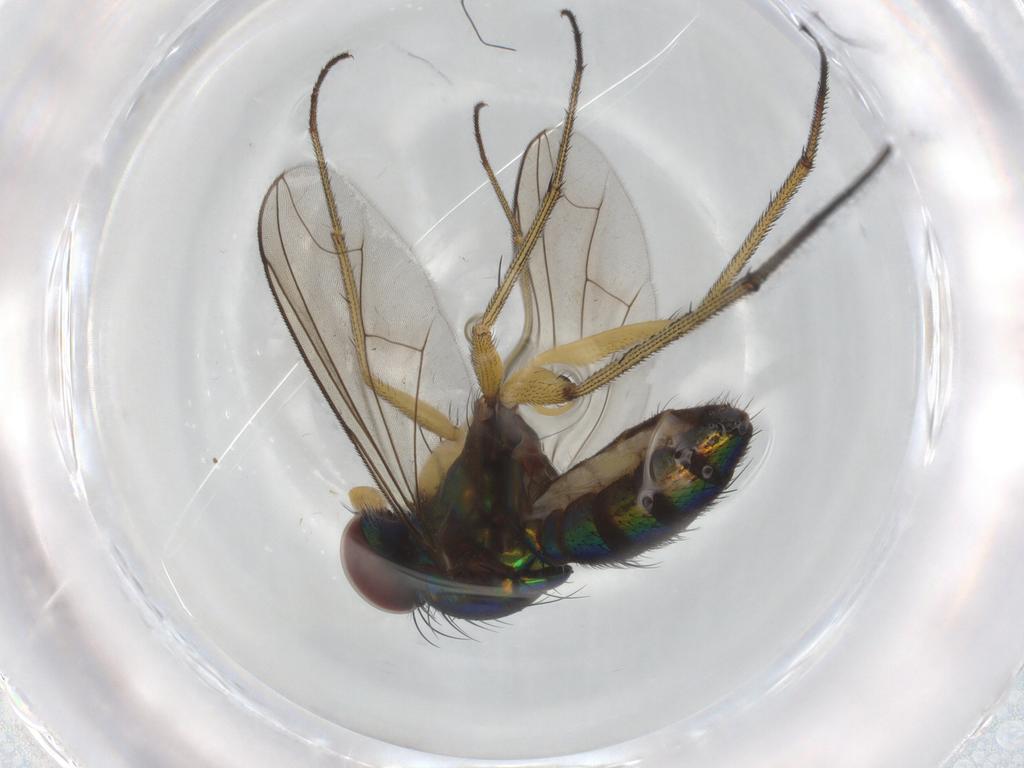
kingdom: Animalia
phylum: Arthropoda
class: Insecta
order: Diptera
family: Dolichopodidae
